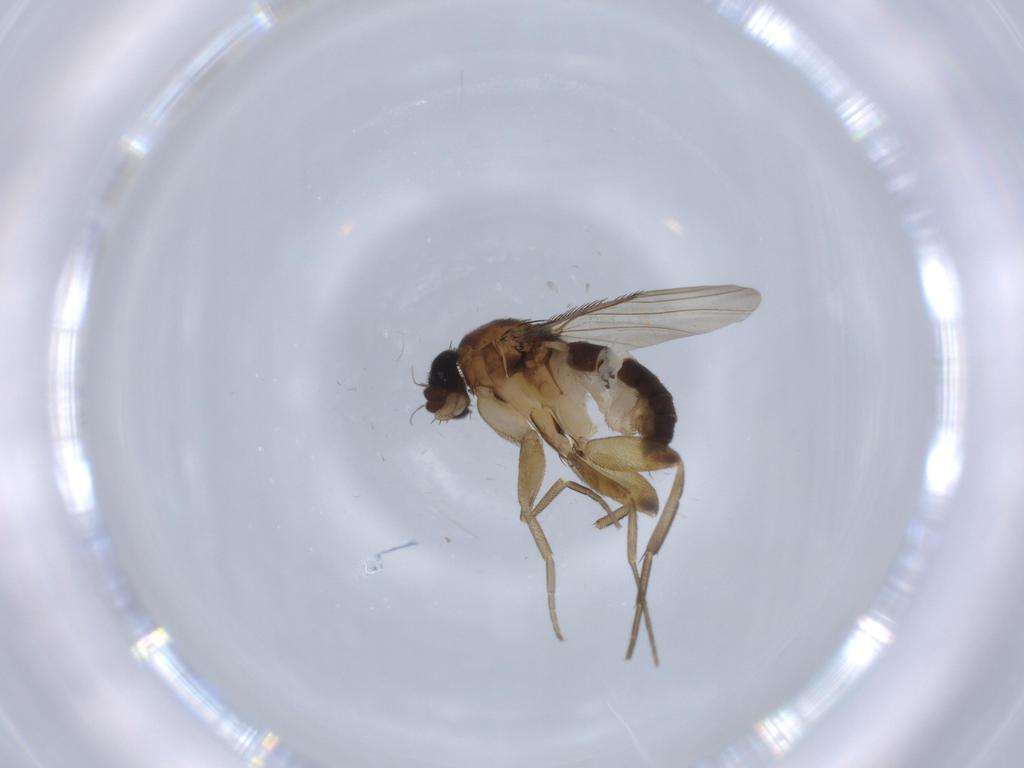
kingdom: Animalia
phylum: Arthropoda
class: Insecta
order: Diptera
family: Phoridae
